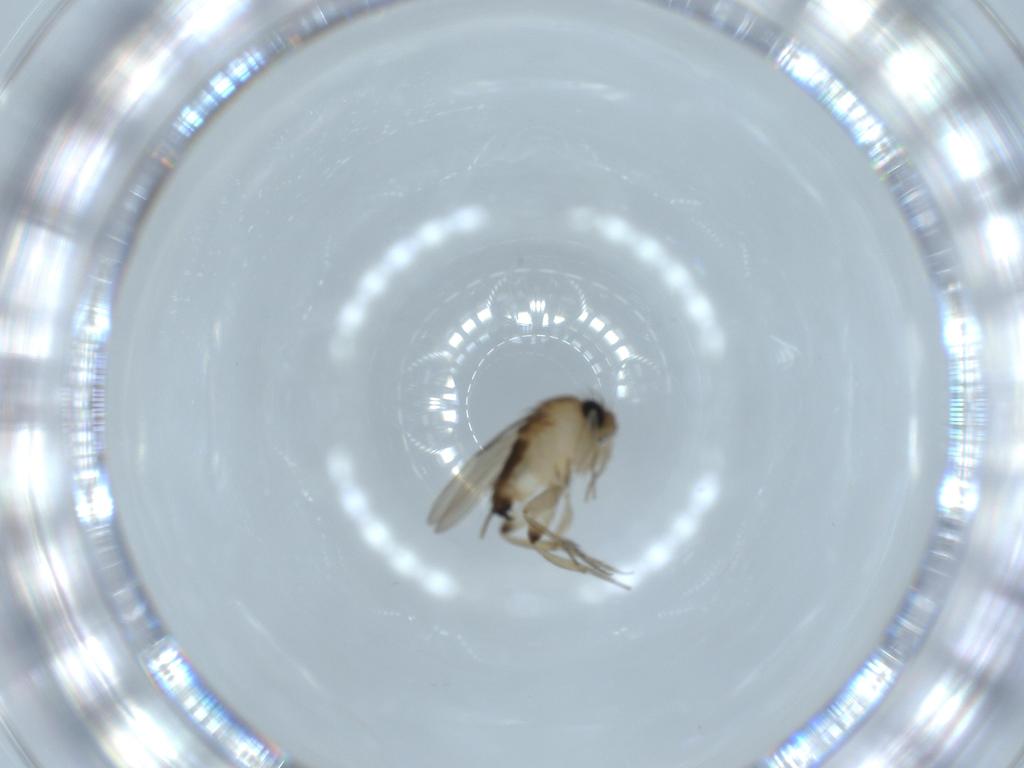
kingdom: Animalia
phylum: Arthropoda
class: Insecta
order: Diptera
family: Phoridae
